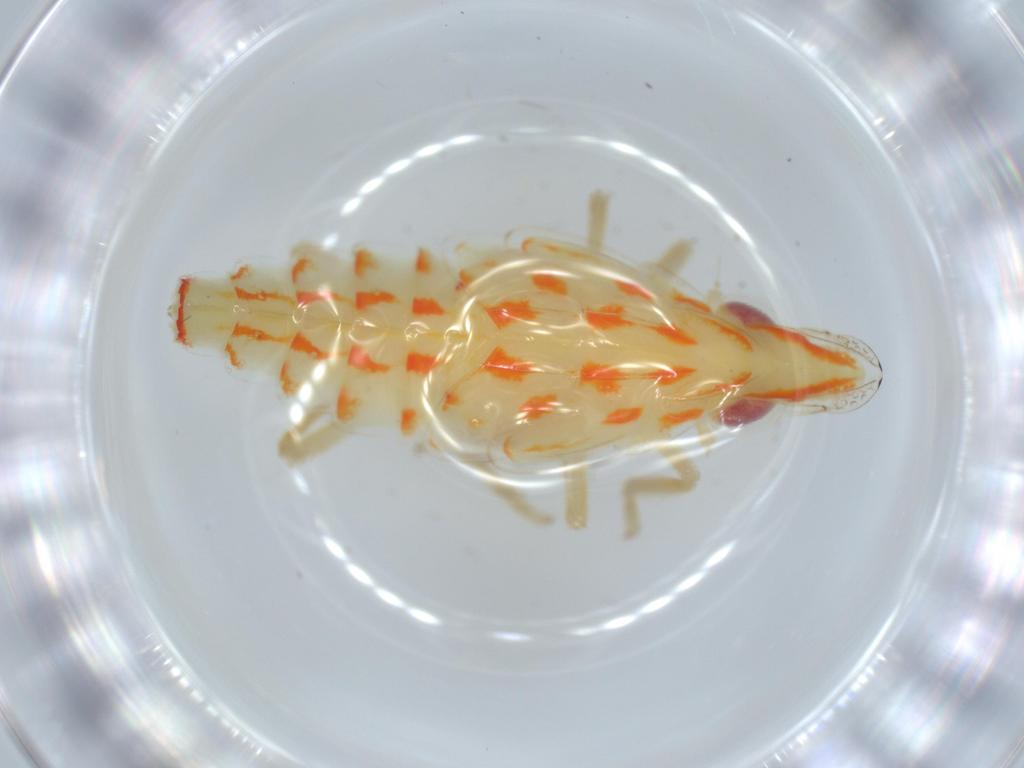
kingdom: Animalia
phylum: Arthropoda
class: Insecta
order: Hemiptera
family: Tropiduchidae
